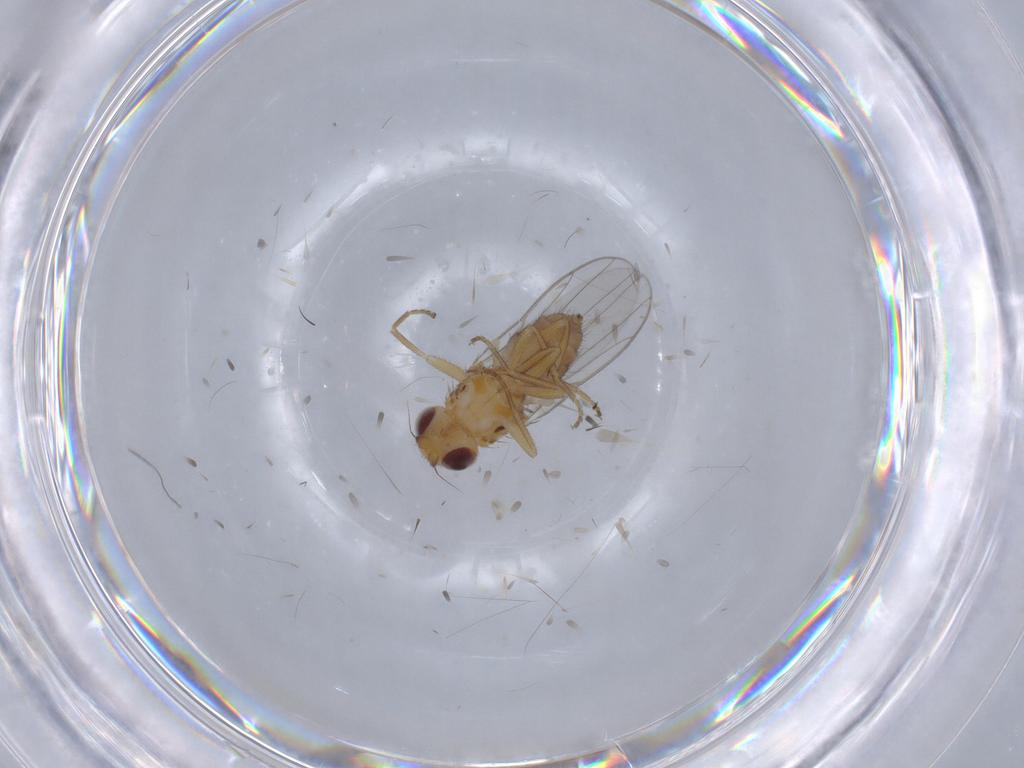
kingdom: Animalia
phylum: Arthropoda
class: Insecta
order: Diptera
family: Chloropidae
